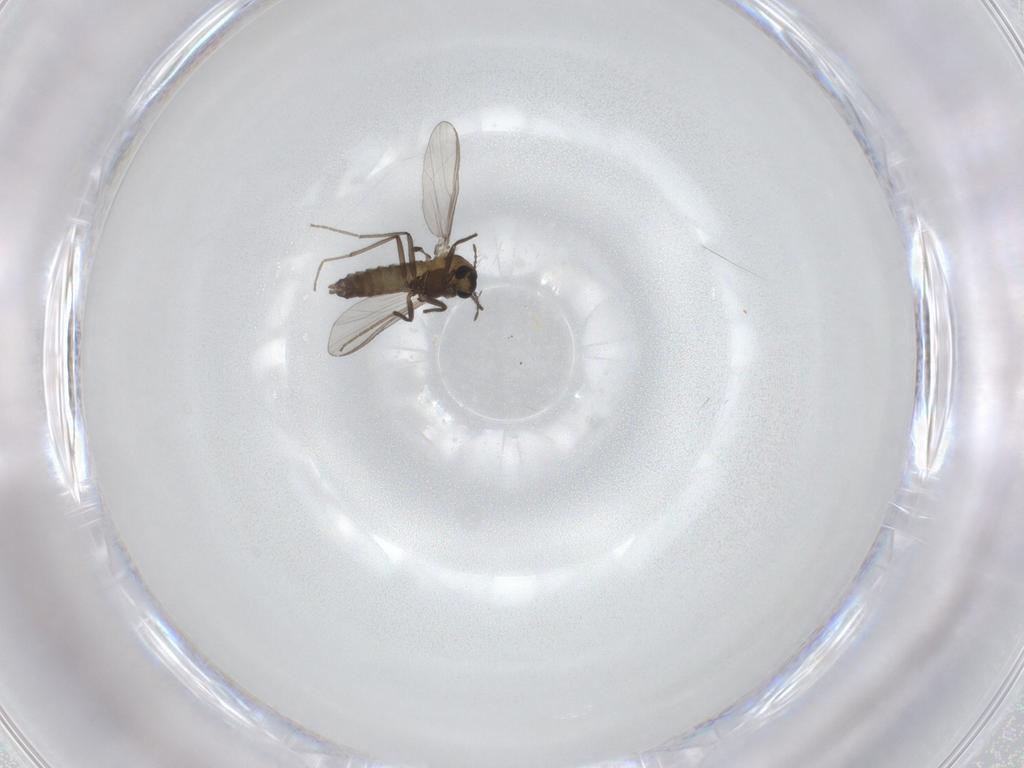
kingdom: Animalia
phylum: Arthropoda
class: Insecta
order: Diptera
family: Chironomidae
